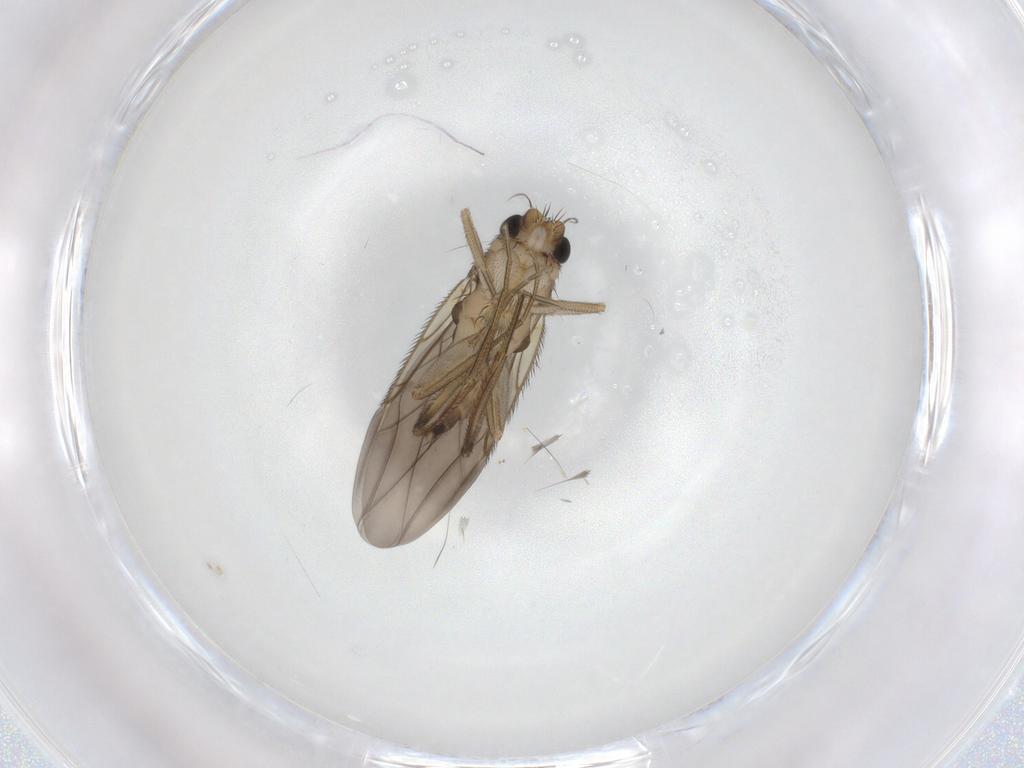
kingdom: Animalia
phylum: Arthropoda
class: Insecta
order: Diptera
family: Phoridae
